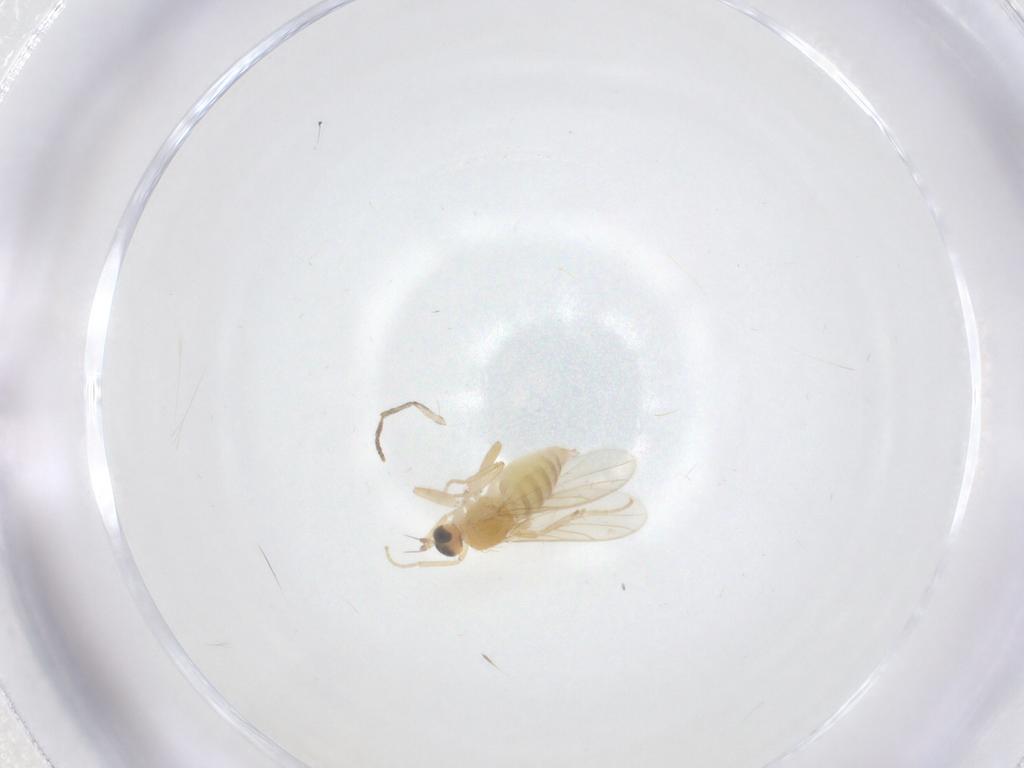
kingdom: Animalia
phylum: Arthropoda
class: Insecta
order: Diptera
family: Hybotidae
